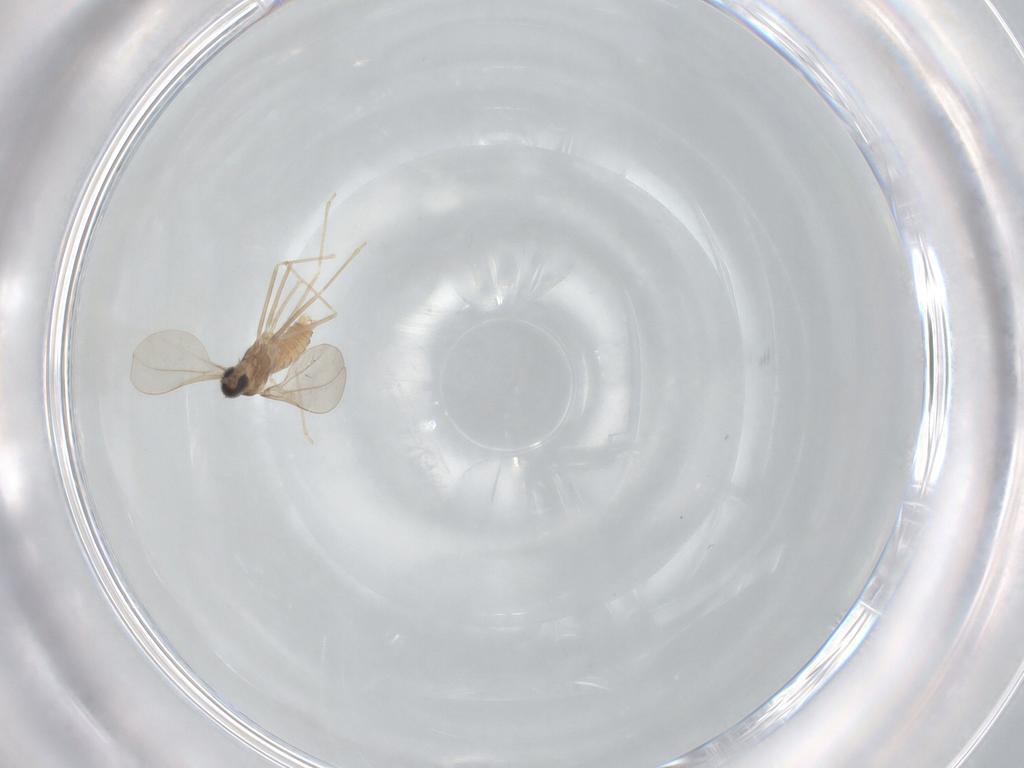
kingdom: Animalia
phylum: Arthropoda
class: Insecta
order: Diptera
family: Cecidomyiidae
